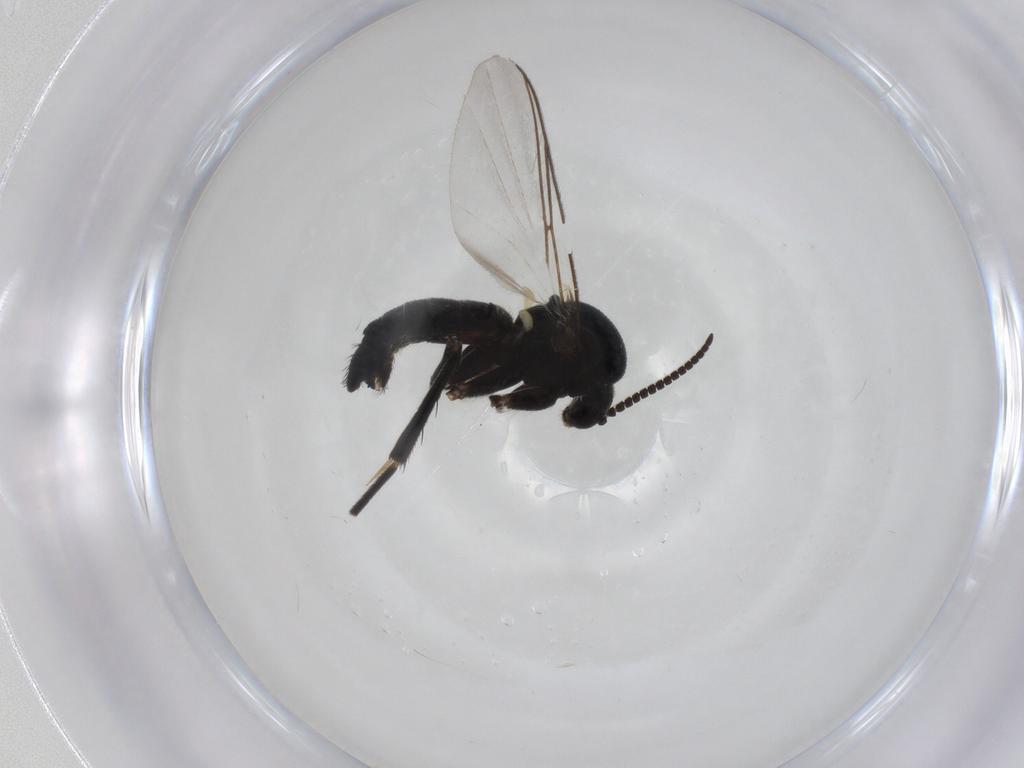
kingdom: Animalia
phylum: Arthropoda
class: Insecta
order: Diptera
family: Mycetophilidae
